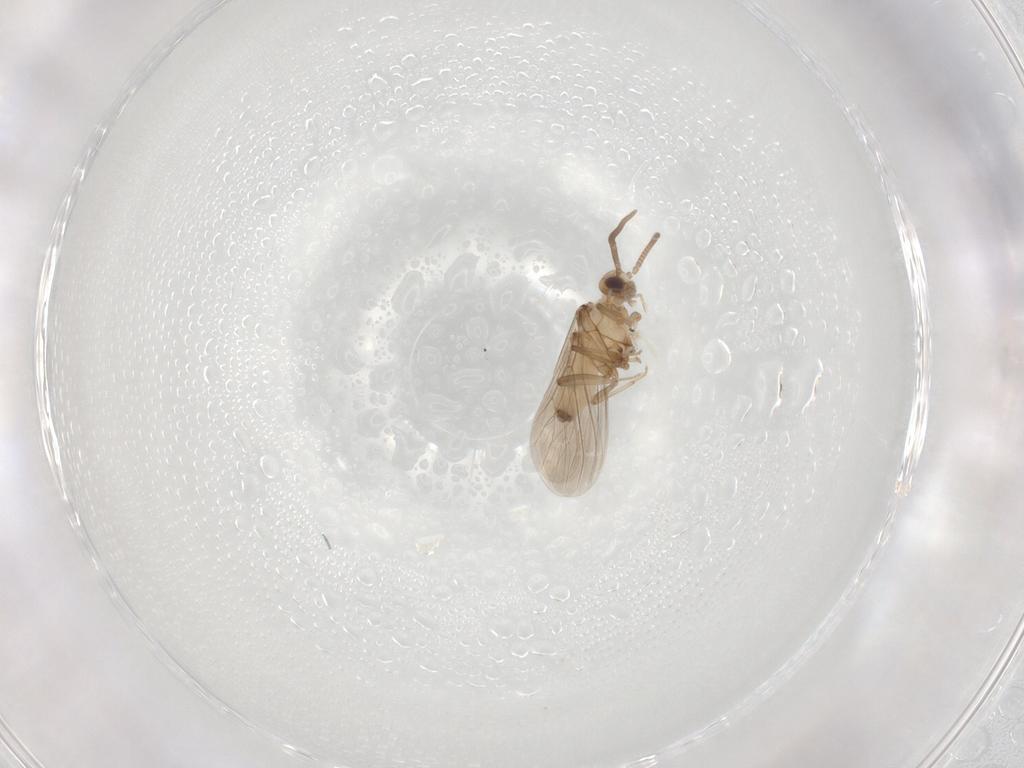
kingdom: Animalia
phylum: Arthropoda
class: Insecta
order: Neuroptera
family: Coniopterygidae
